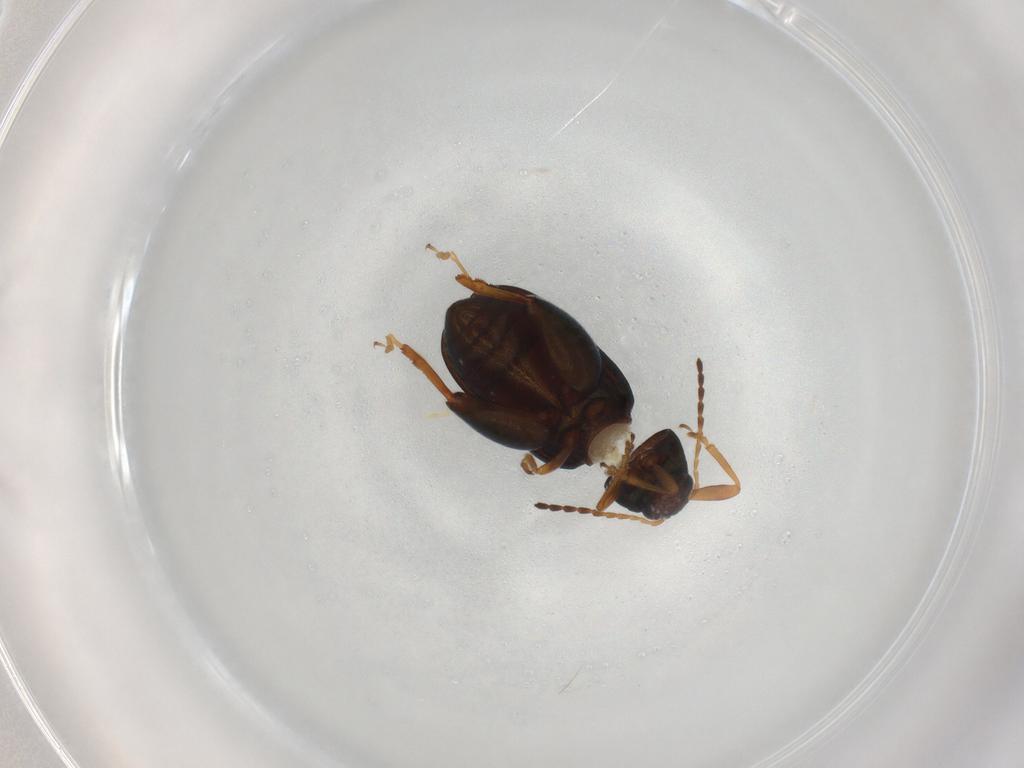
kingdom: Animalia
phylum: Arthropoda
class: Insecta
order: Coleoptera
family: Chrysomelidae
